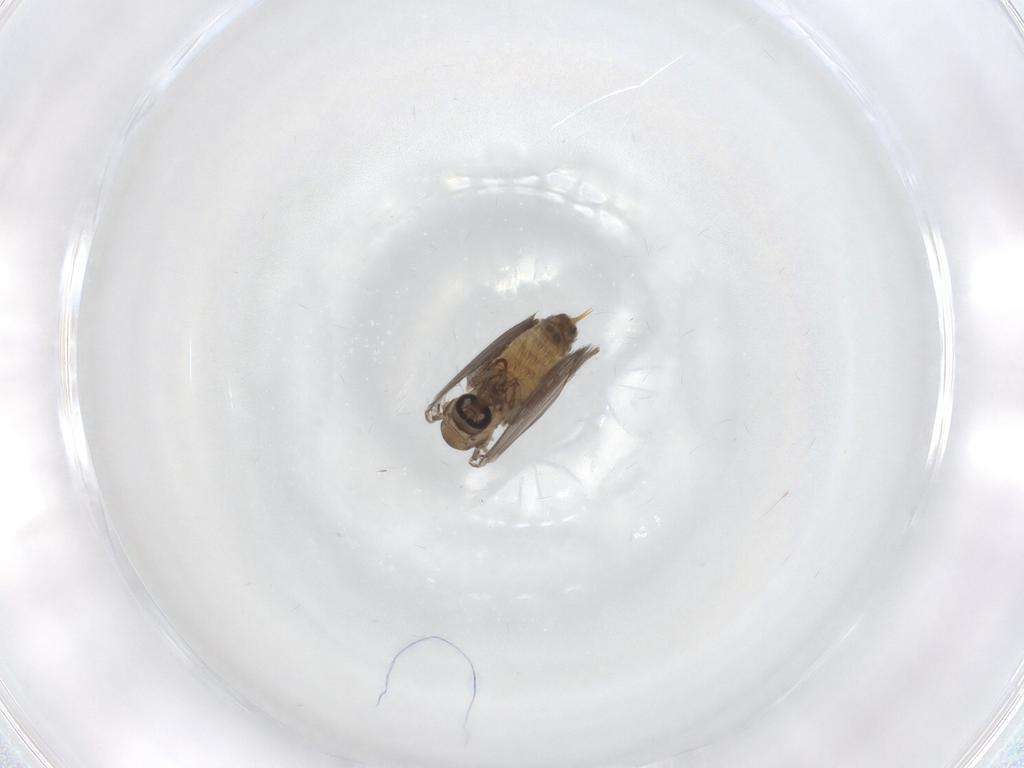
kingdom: Animalia
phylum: Arthropoda
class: Insecta
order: Diptera
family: Psychodidae
